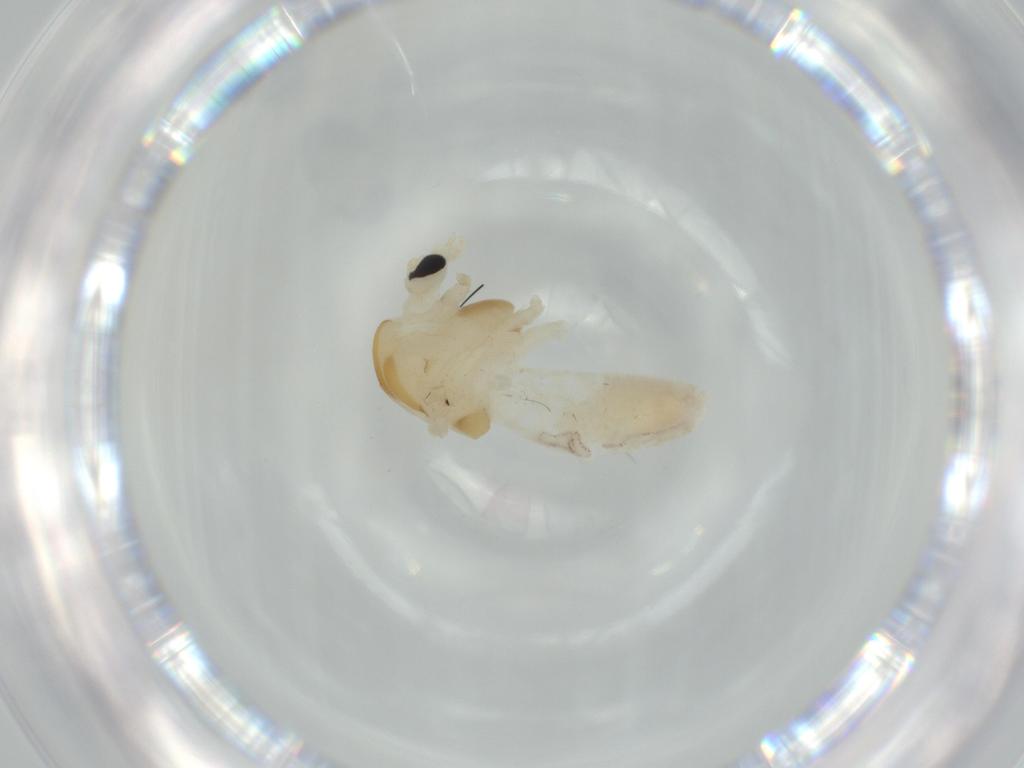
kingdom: Animalia
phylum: Arthropoda
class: Insecta
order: Diptera
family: Chironomidae
